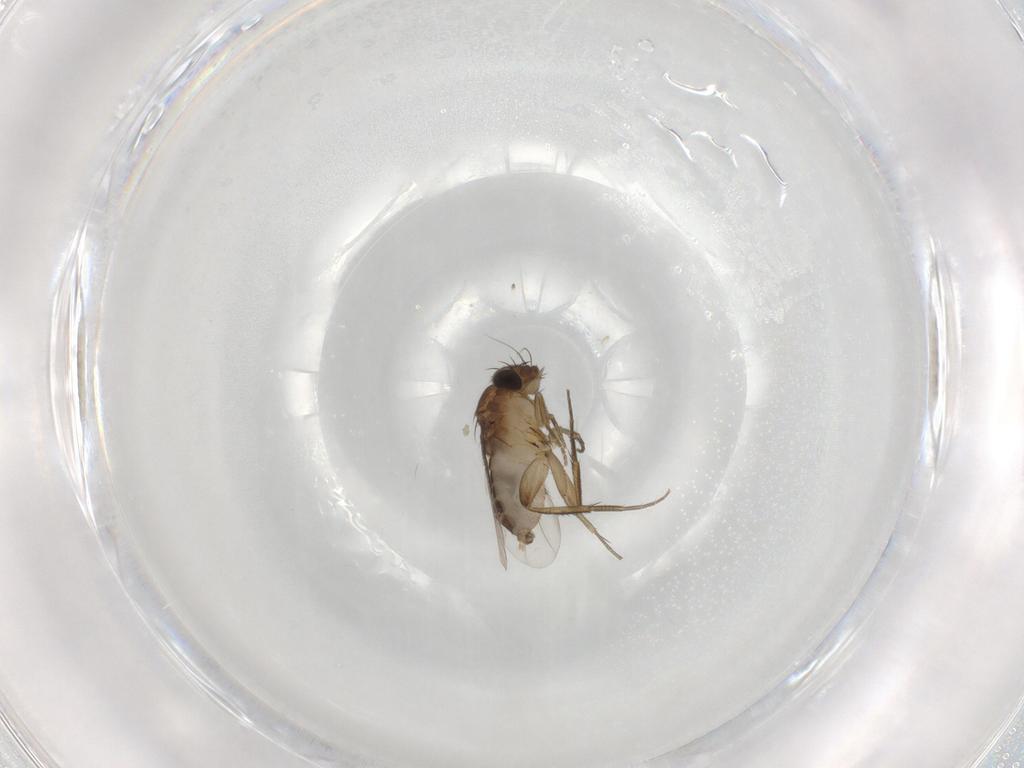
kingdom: Animalia
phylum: Arthropoda
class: Insecta
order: Diptera
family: Phoridae
